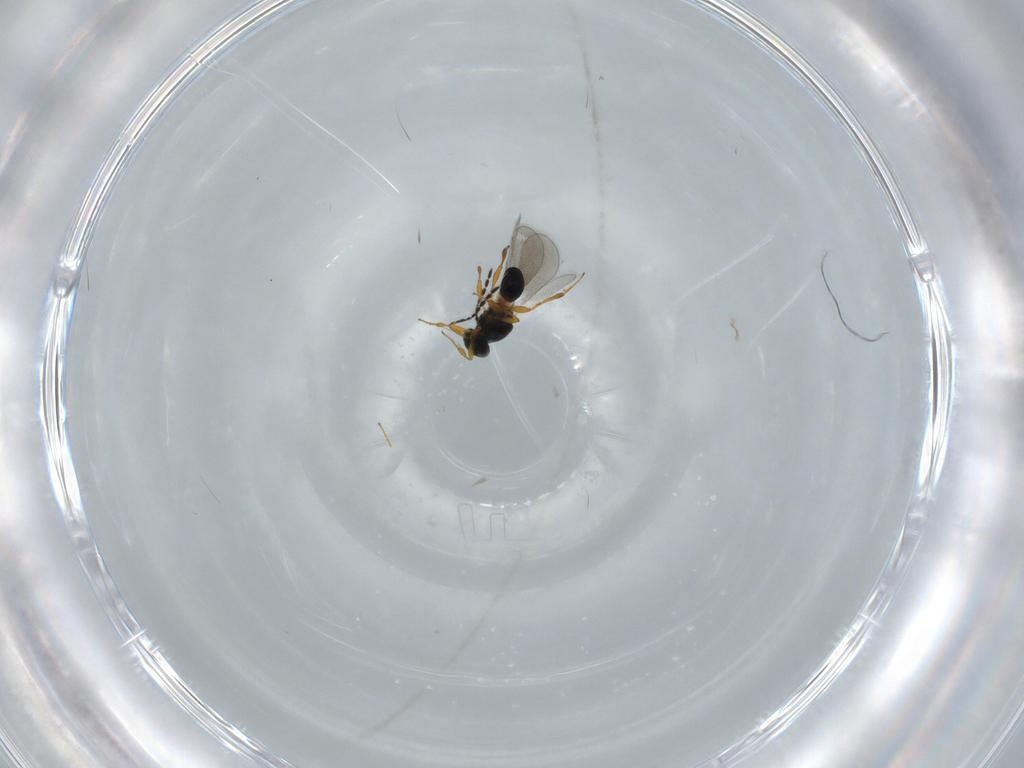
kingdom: Animalia
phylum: Arthropoda
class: Insecta
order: Hymenoptera
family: Platygastridae
